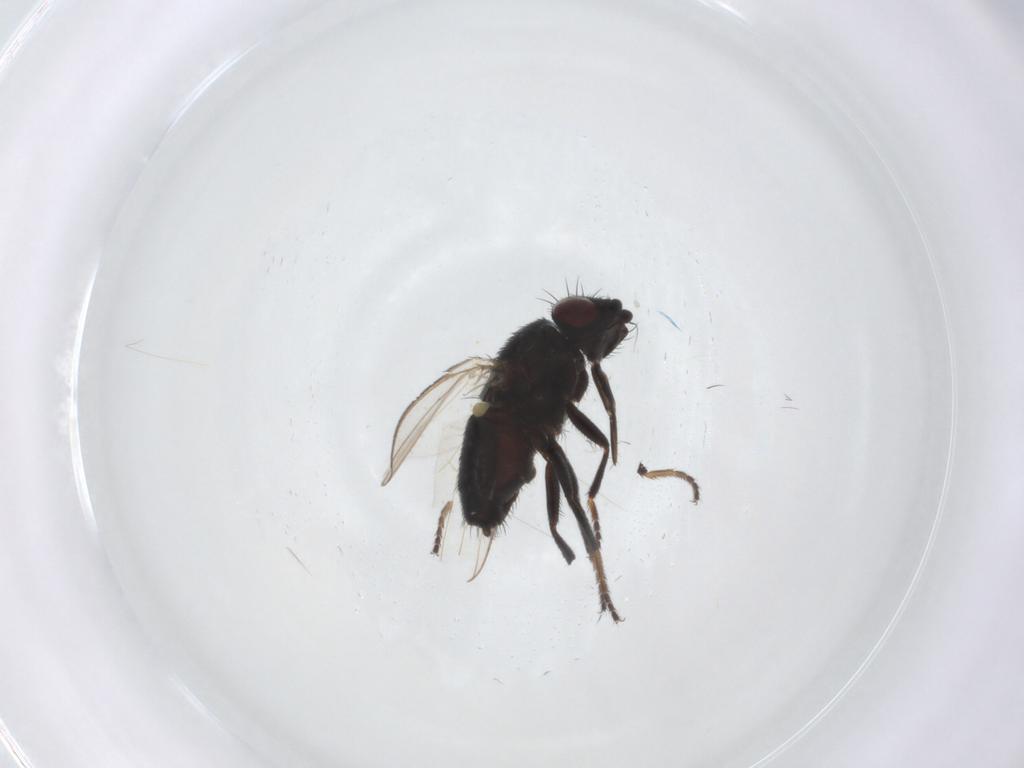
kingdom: Animalia
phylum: Arthropoda
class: Insecta
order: Diptera
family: Milichiidae
